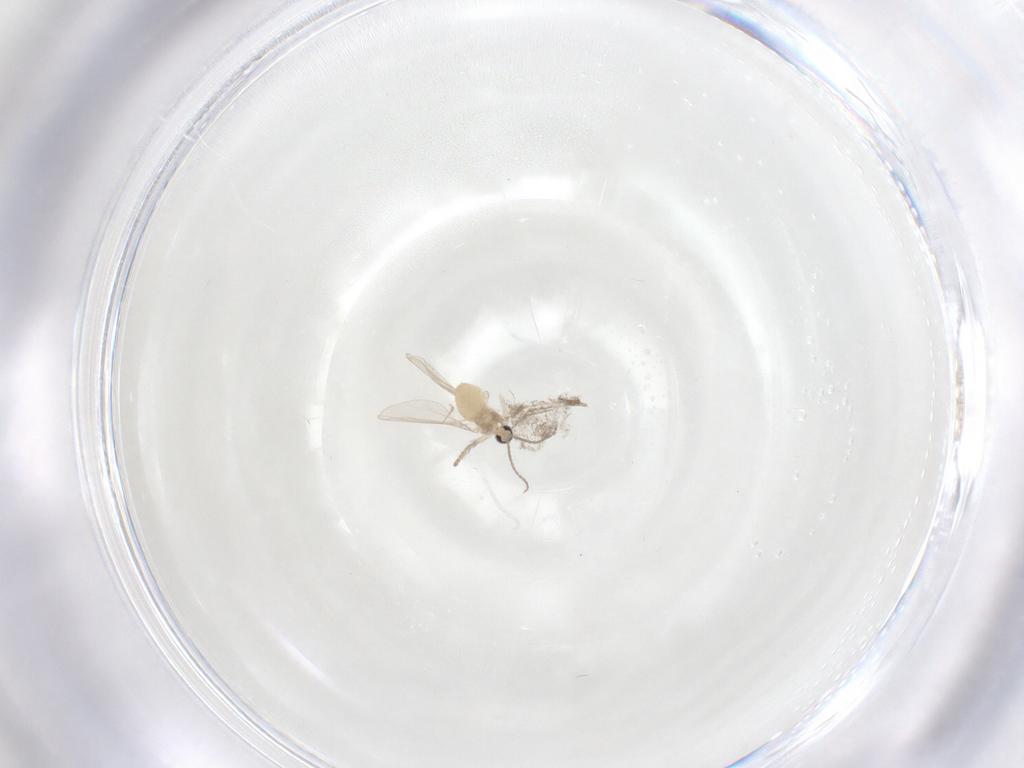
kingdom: Animalia
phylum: Arthropoda
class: Insecta
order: Diptera
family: Psychodidae
